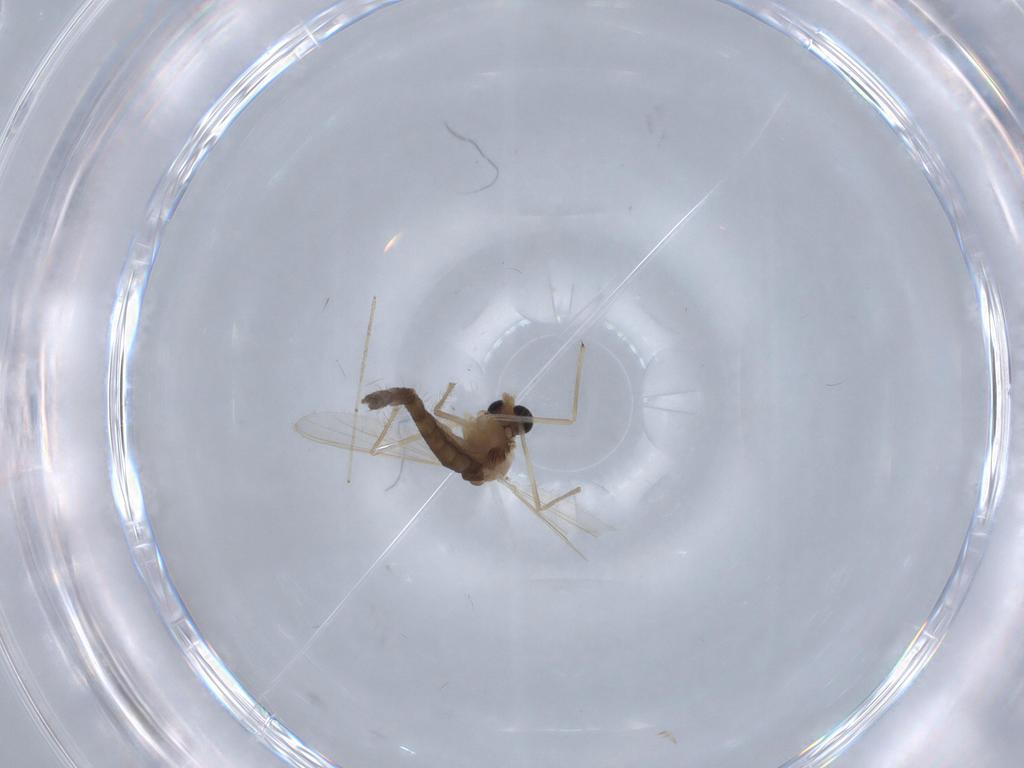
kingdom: Animalia
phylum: Arthropoda
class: Insecta
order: Diptera
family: Chironomidae
